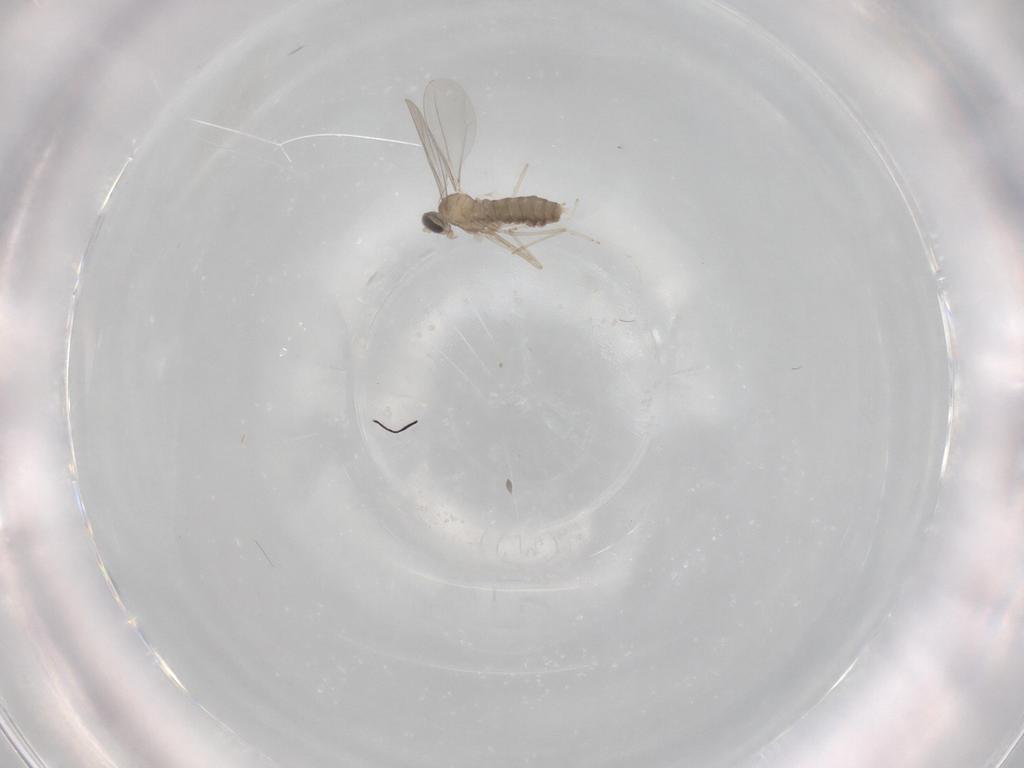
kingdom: Animalia
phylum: Arthropoda
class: Insecta
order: Diptera
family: Cecidomyiidae
